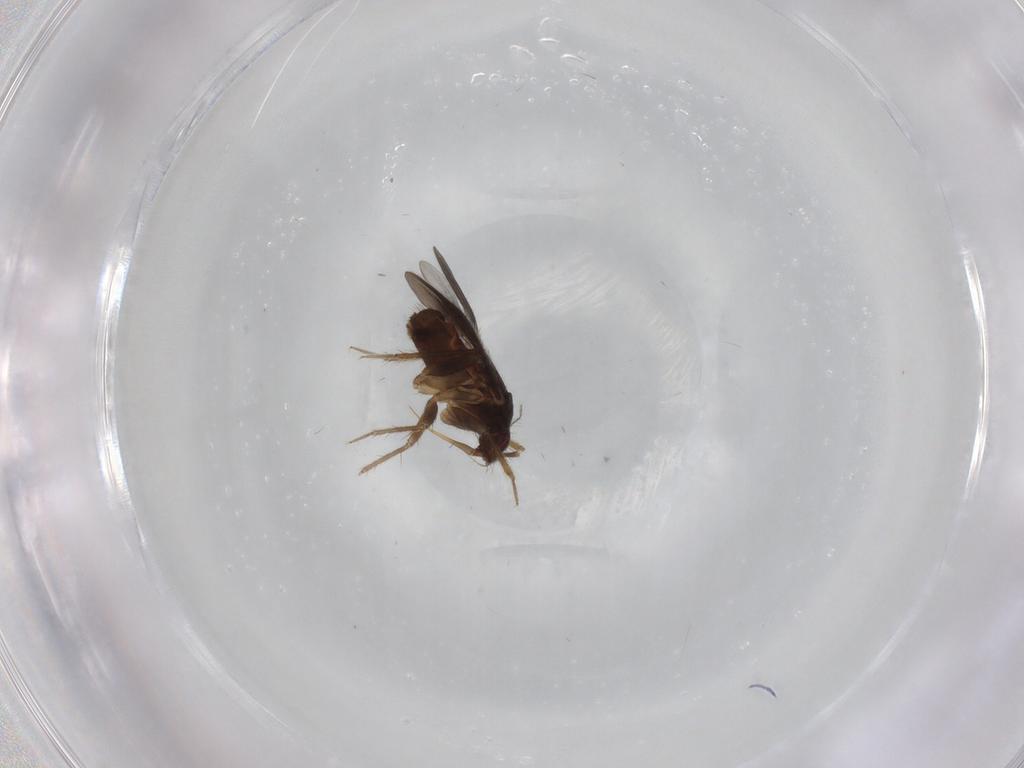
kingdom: Animalia
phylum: Arthropoda
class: Insecta
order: Hemiptera
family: Ceratocombidae
